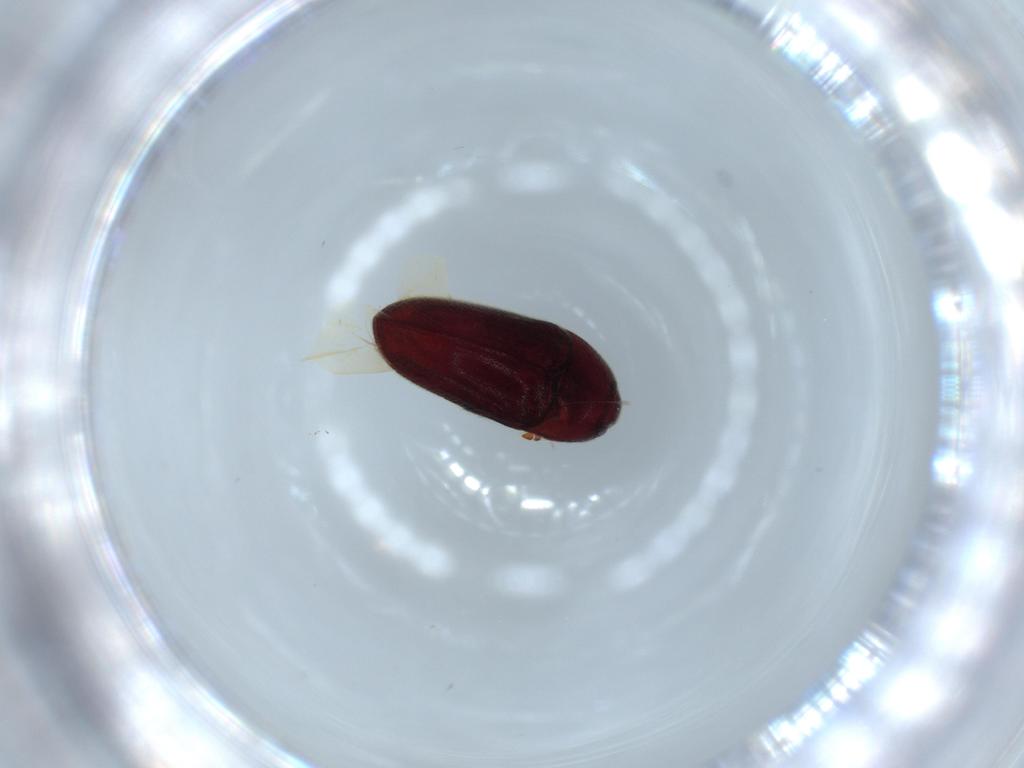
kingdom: Animalia
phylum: Arthropoda
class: Insecta
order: Coleoptera
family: Throscidae
